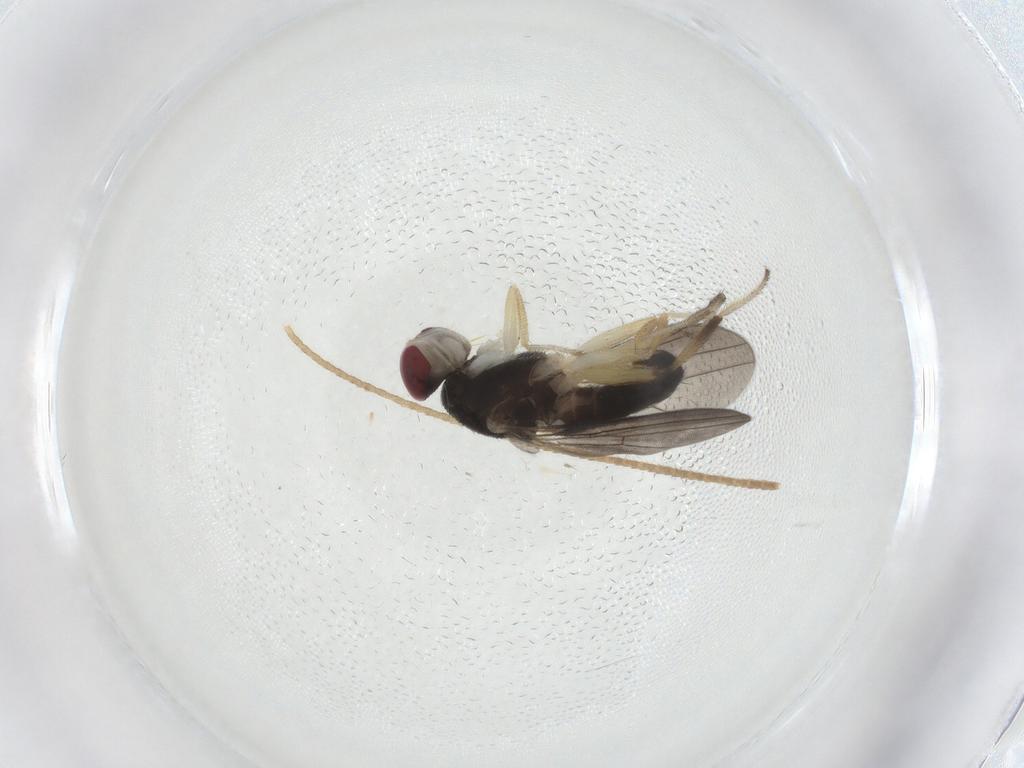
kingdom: Animalia
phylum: Arthropoda
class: Insecta
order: Diptera
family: Clusiidae
